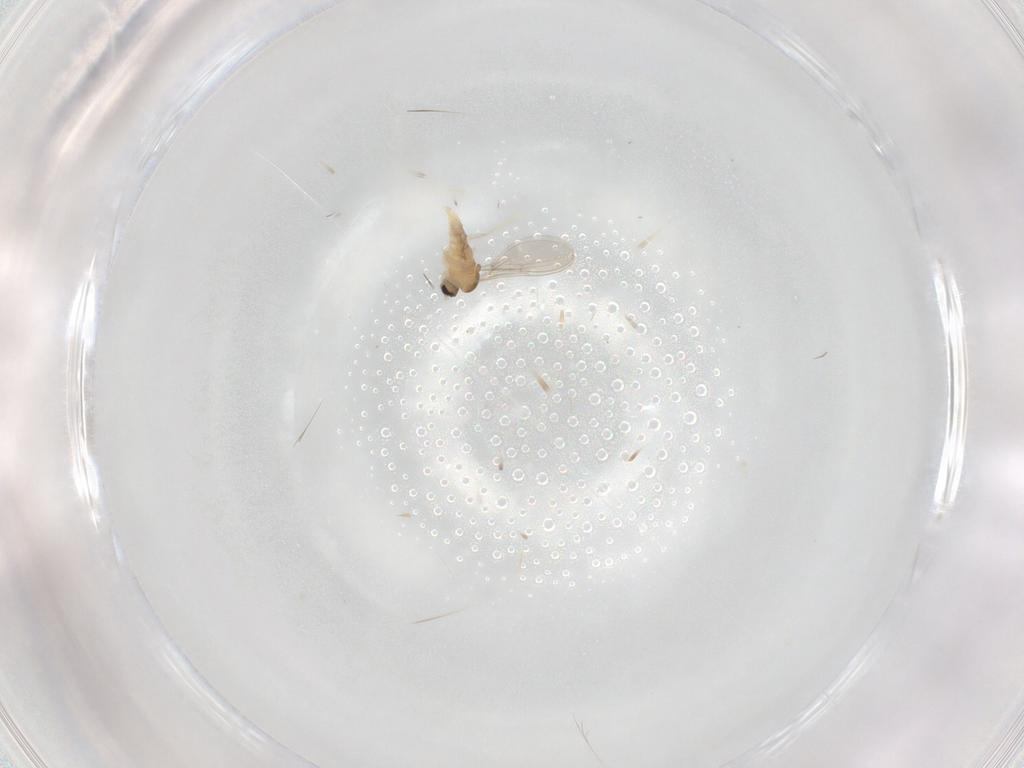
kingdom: Animalia
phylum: Arthropoda
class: Insecta
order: Diptera
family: Cecidomyiidae
